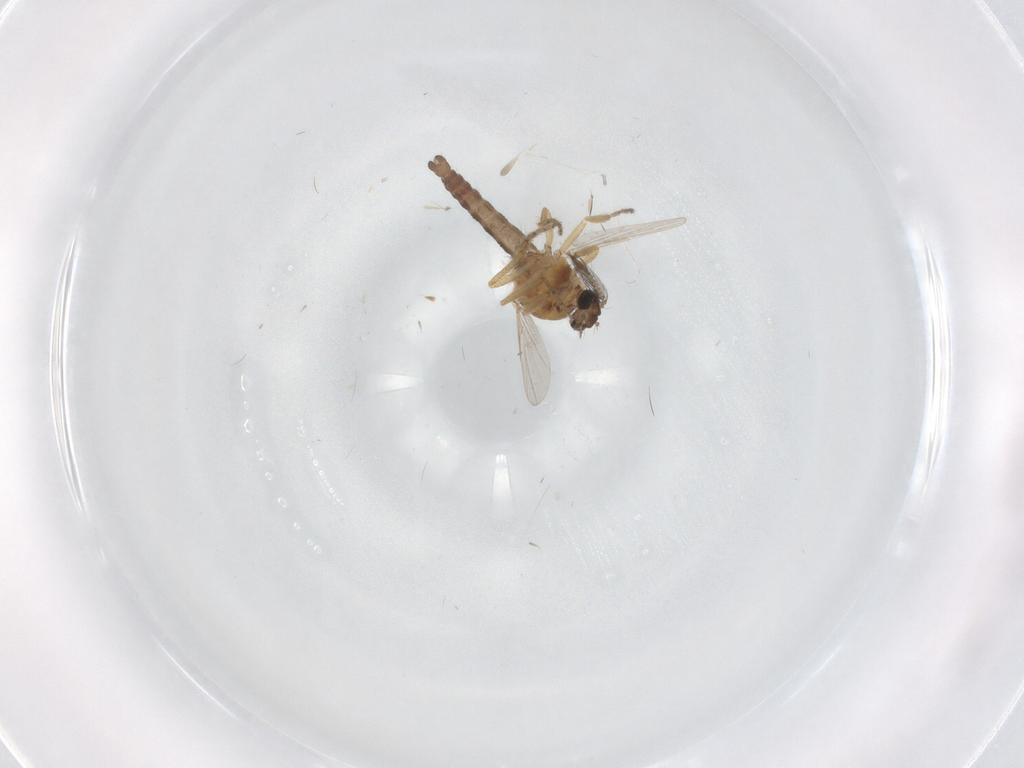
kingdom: Animalia
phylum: Arthropoda
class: Insecta
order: Diptera
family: Ceratopogonidae
